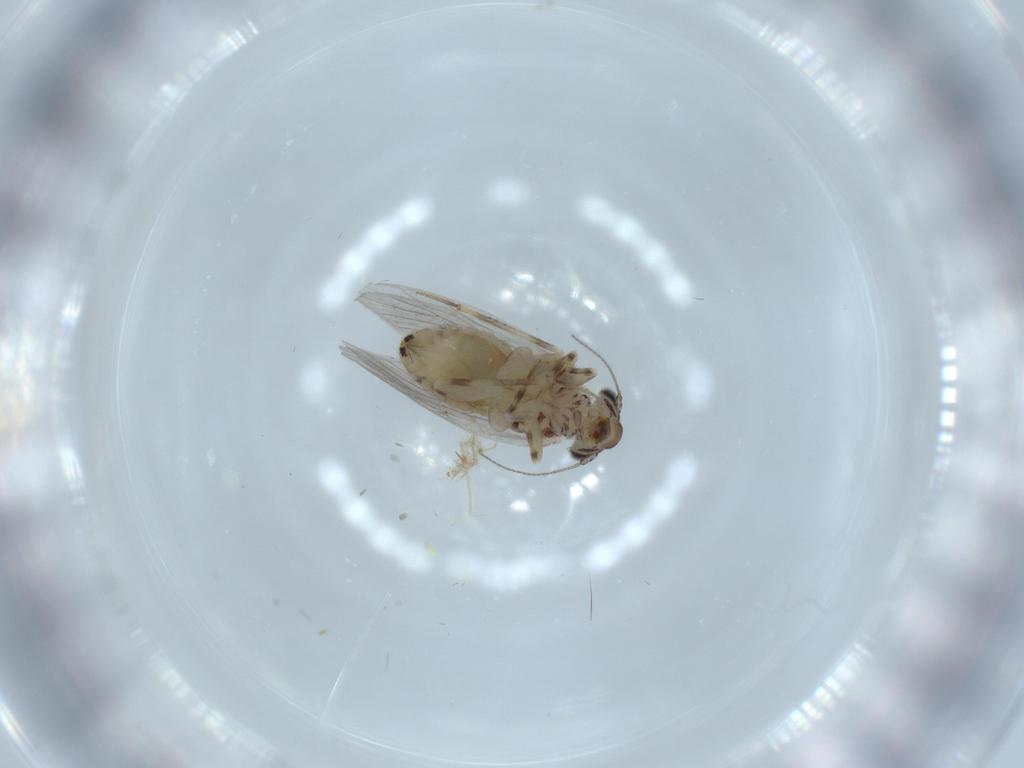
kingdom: Animalia
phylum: Arthropoda
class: Insecta
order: Psocodea
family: Lepidopsocidae
